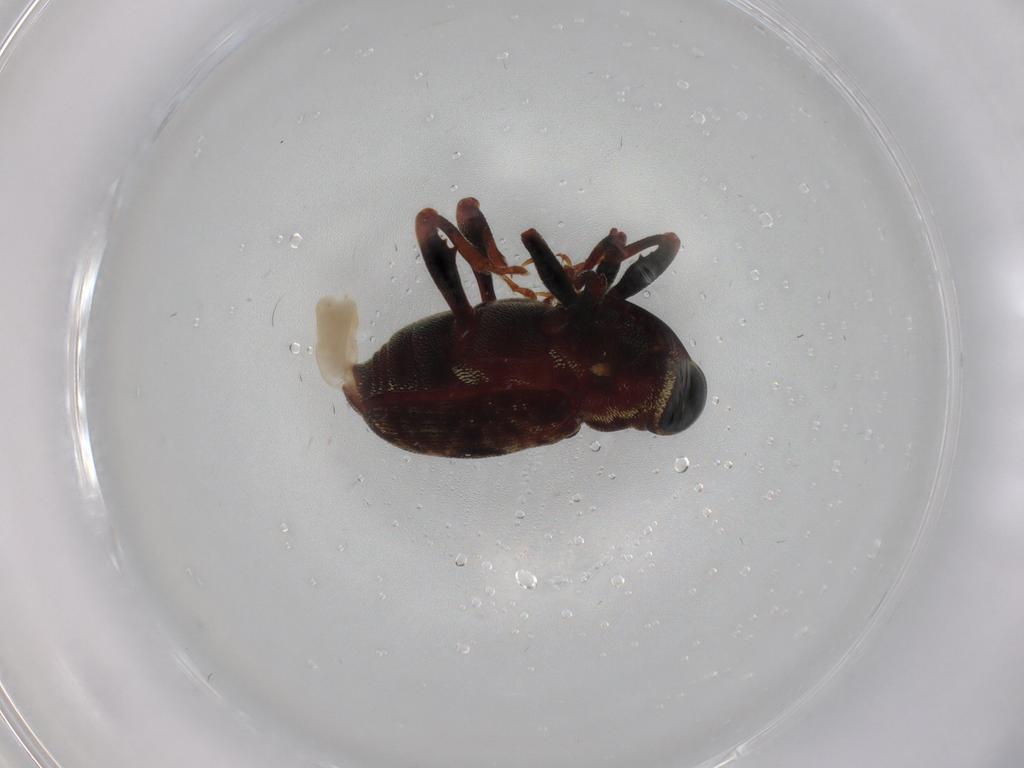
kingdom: Animalia
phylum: Arthropoda
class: Insecta
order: Coleoptera
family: Curculionidae
